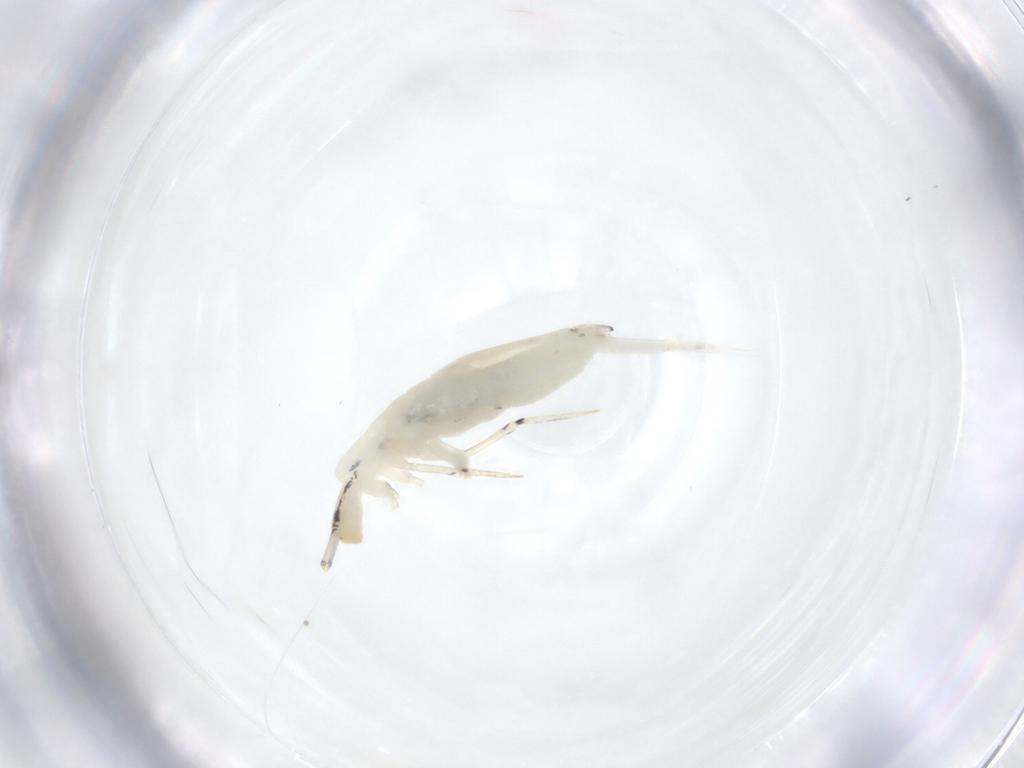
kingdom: Animalia
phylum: Arthropoda
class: Collembola
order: Entomobryomorpha
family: Entomobryidae
